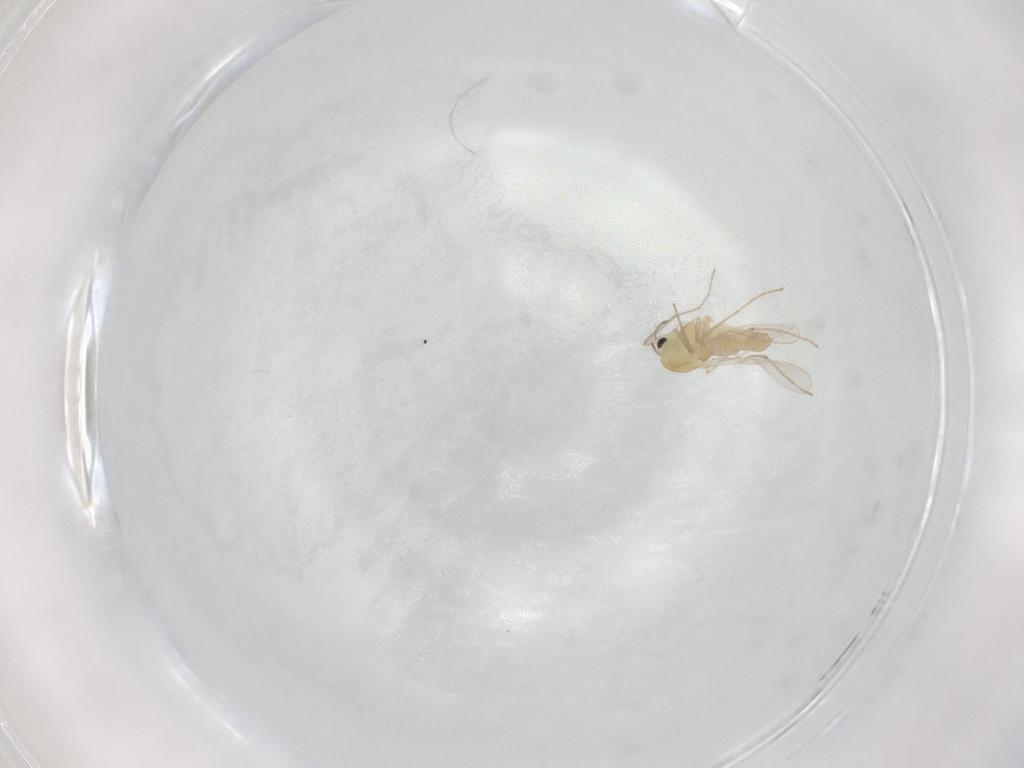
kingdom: Animalia
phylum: Arthropoda
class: Insecta
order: Diptera
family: Chironomidae
